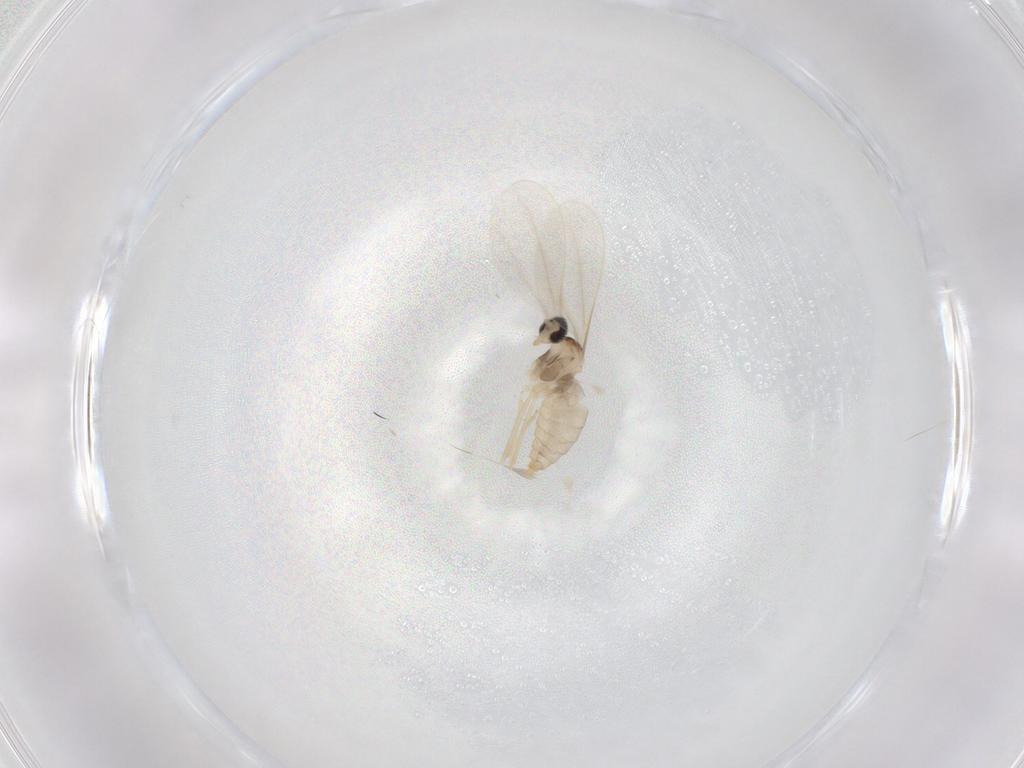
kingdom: Animalia
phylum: Arthropoda
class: Insecta
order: Diptera
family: Cecidomyiidae
